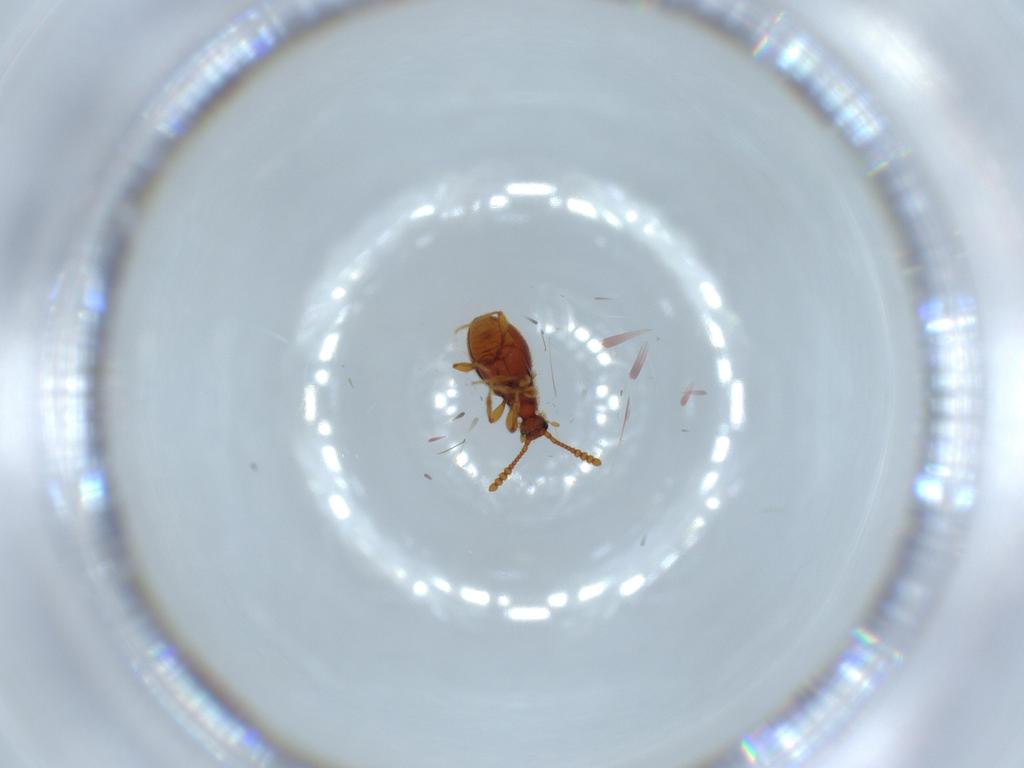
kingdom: Animalia
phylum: Arthropoda
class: Insecta
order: Coleoptera
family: Staphylinidae
